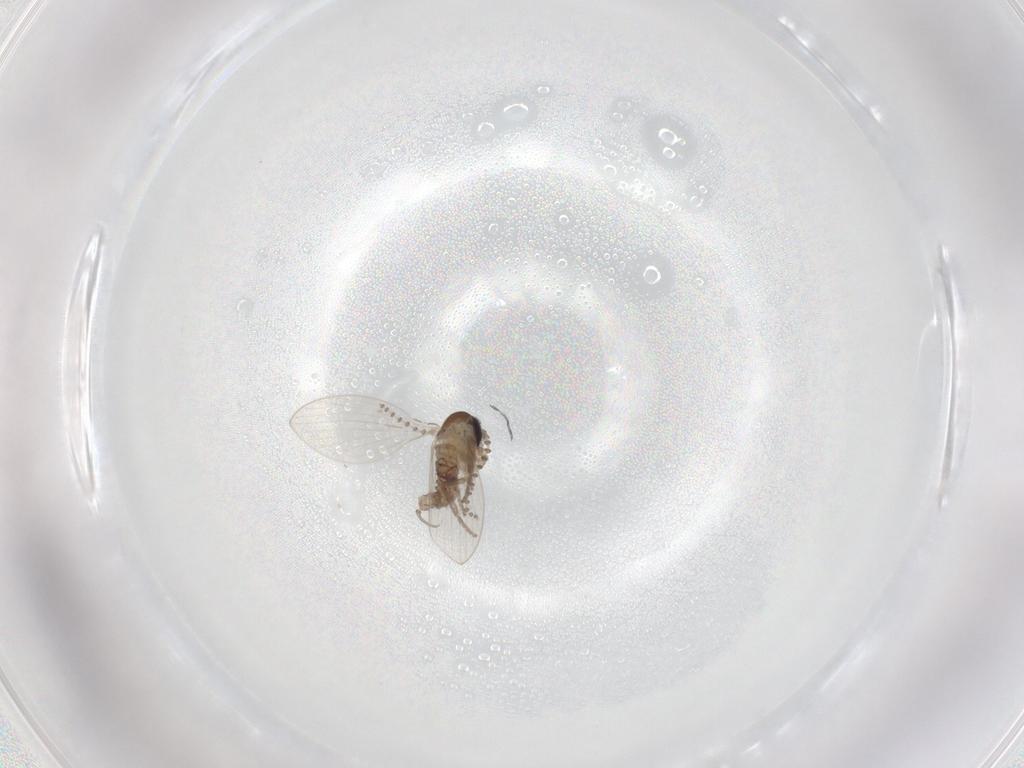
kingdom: Animalia
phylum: Arthropoda
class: Insecta
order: Diptera
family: Psychodidae
